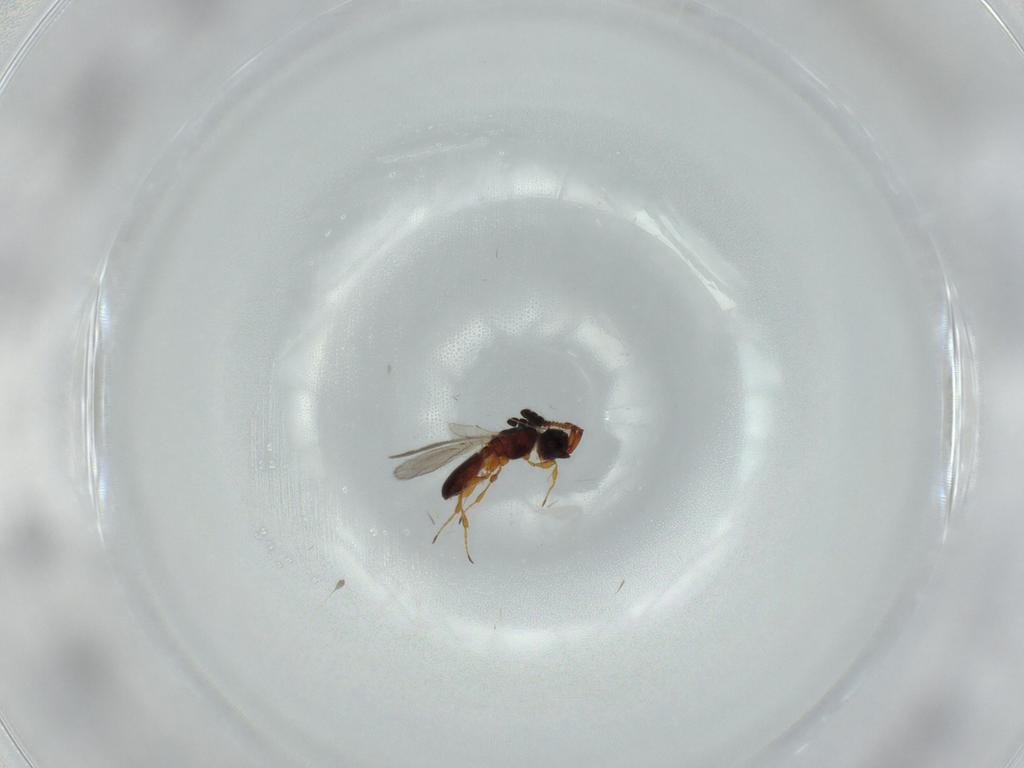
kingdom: Animalia
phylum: Arthropoda
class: Insecta
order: Hymenoptera
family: Diapriidae
